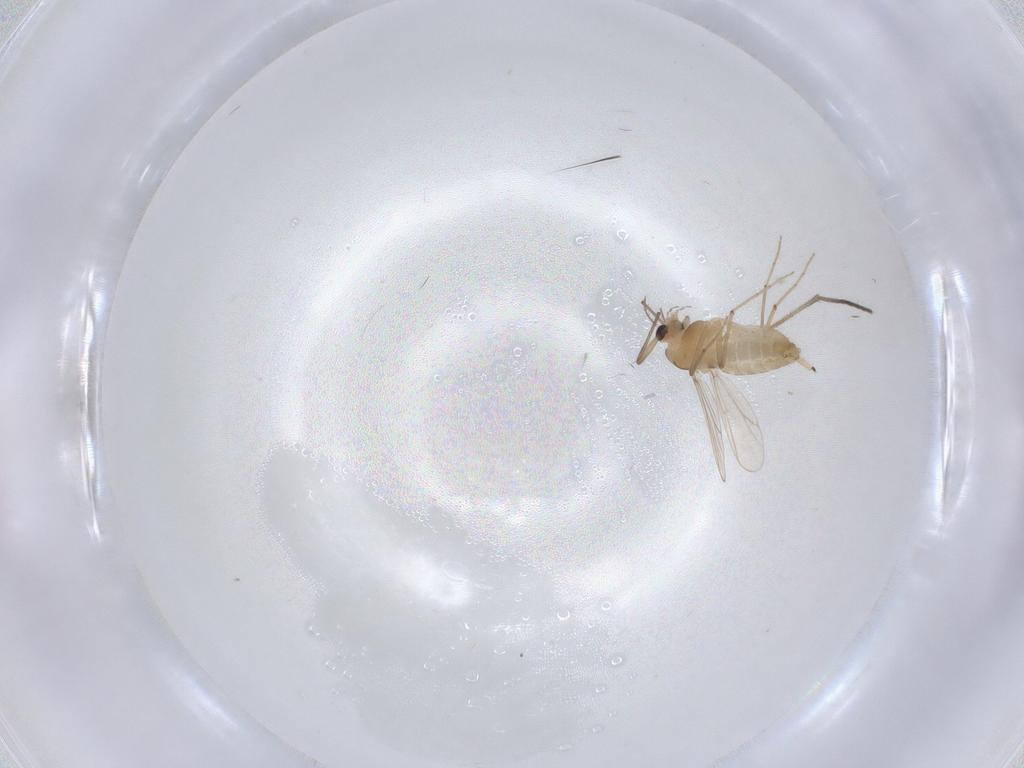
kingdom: Animalia
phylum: Arthropoda
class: Insecta
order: Diptera
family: Chironomidae
